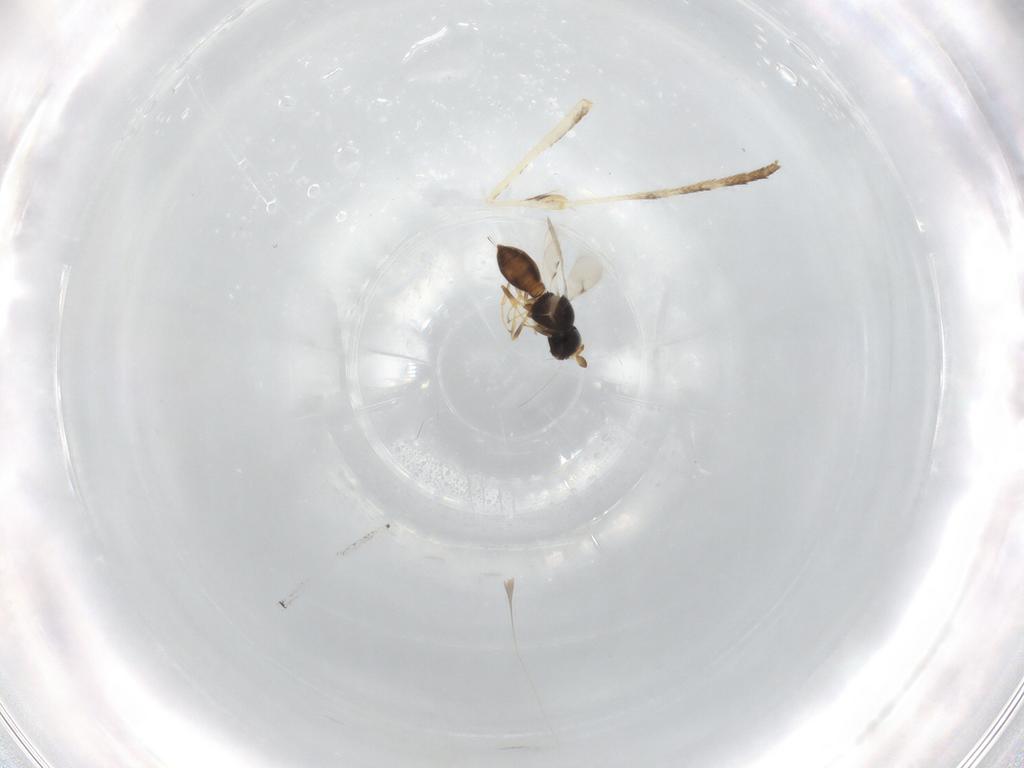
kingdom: Animalia
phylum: Arthropoda
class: Insecta
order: Hymenoptera
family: Scelionidae
